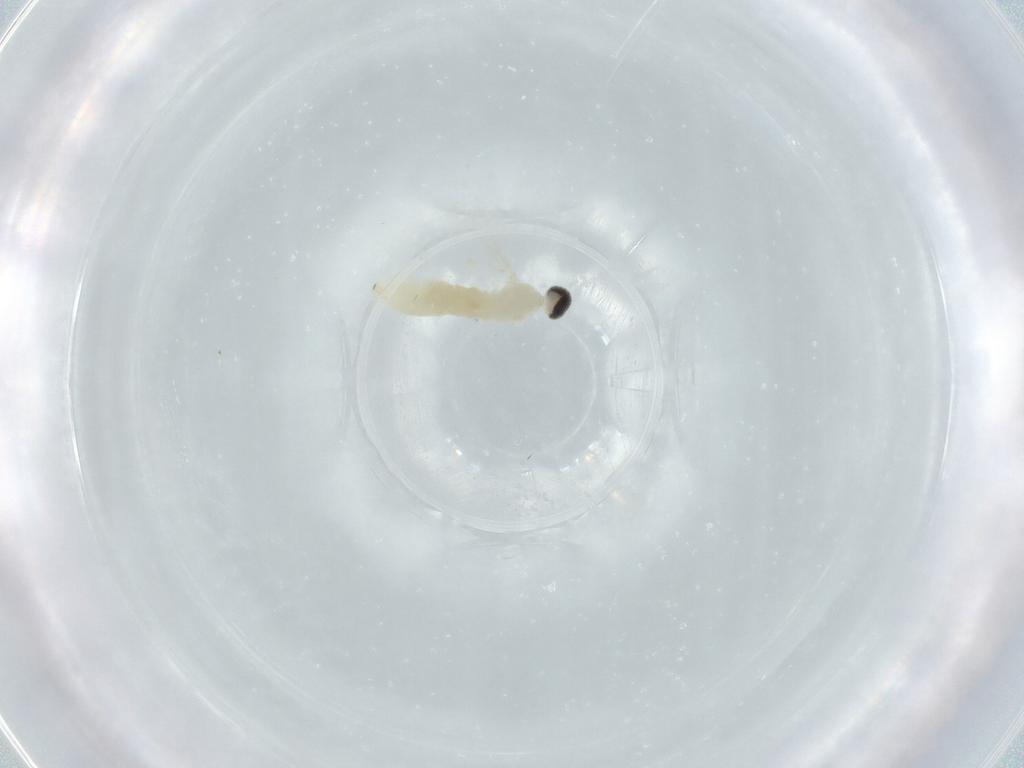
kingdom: Animalia
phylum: Arthropoda
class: Insecta
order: Diptera
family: Cecidomyiidae
